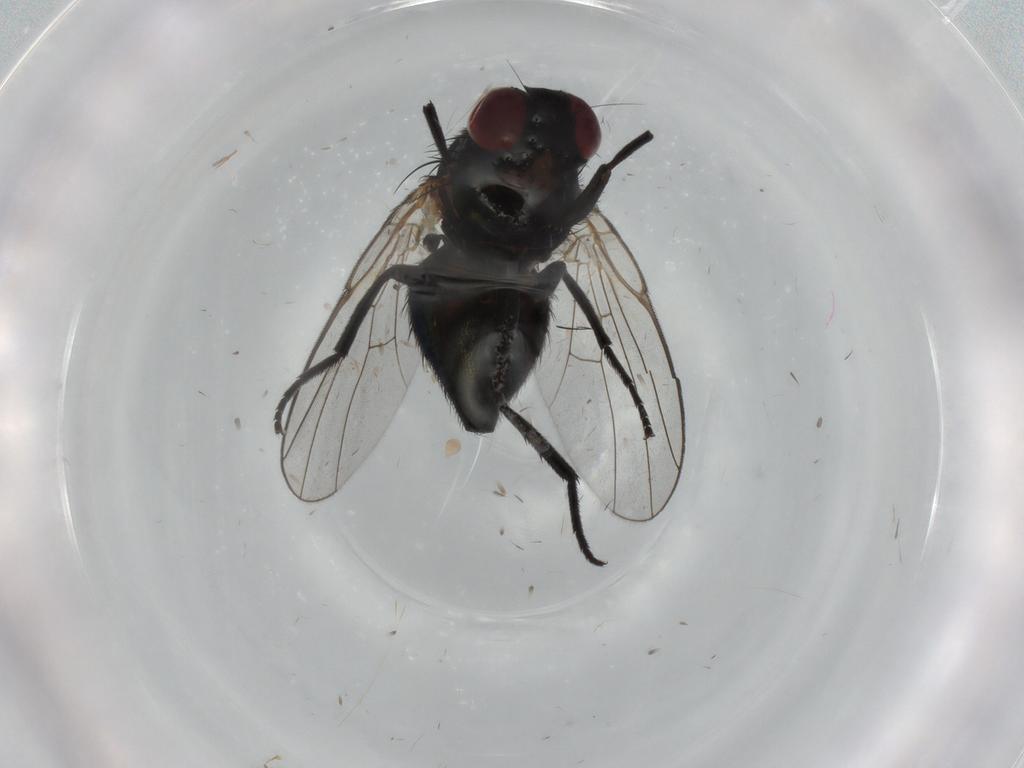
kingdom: Animalia
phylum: Arthropoda
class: Insecta
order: Diptera
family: Agromyzidae
